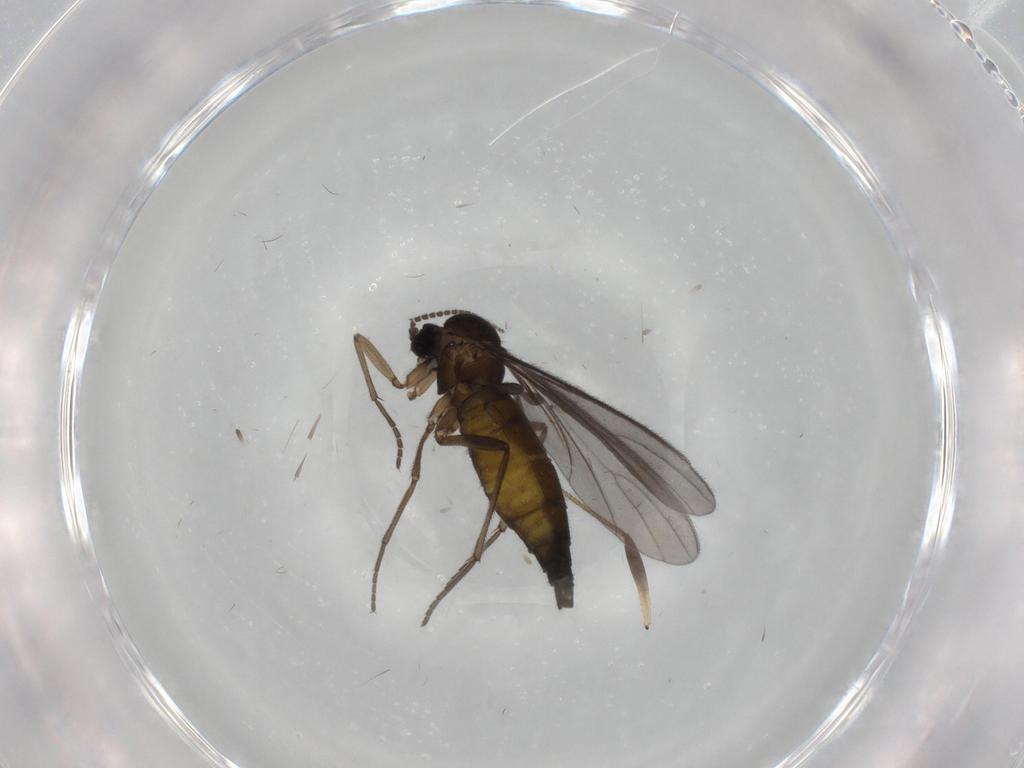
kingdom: Animalia
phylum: Arthropoda
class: Insecta
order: Diptera
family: Sciaridae
